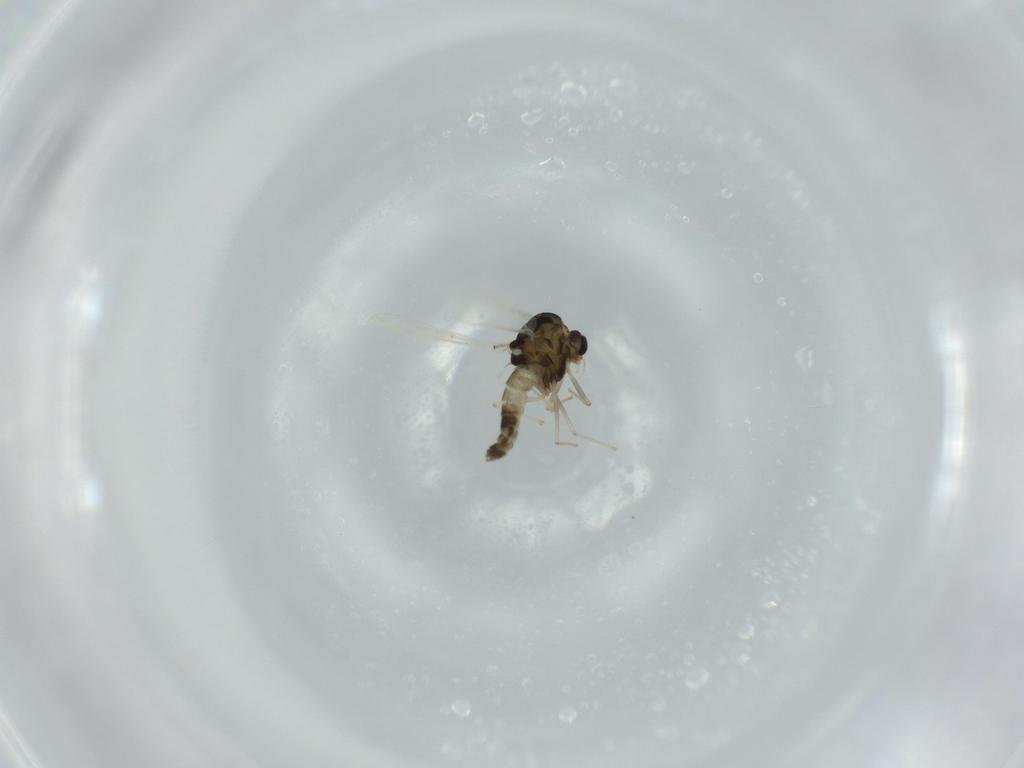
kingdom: Animalia
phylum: Arthropoda
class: Insecta
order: Diptera
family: Chironomidae
